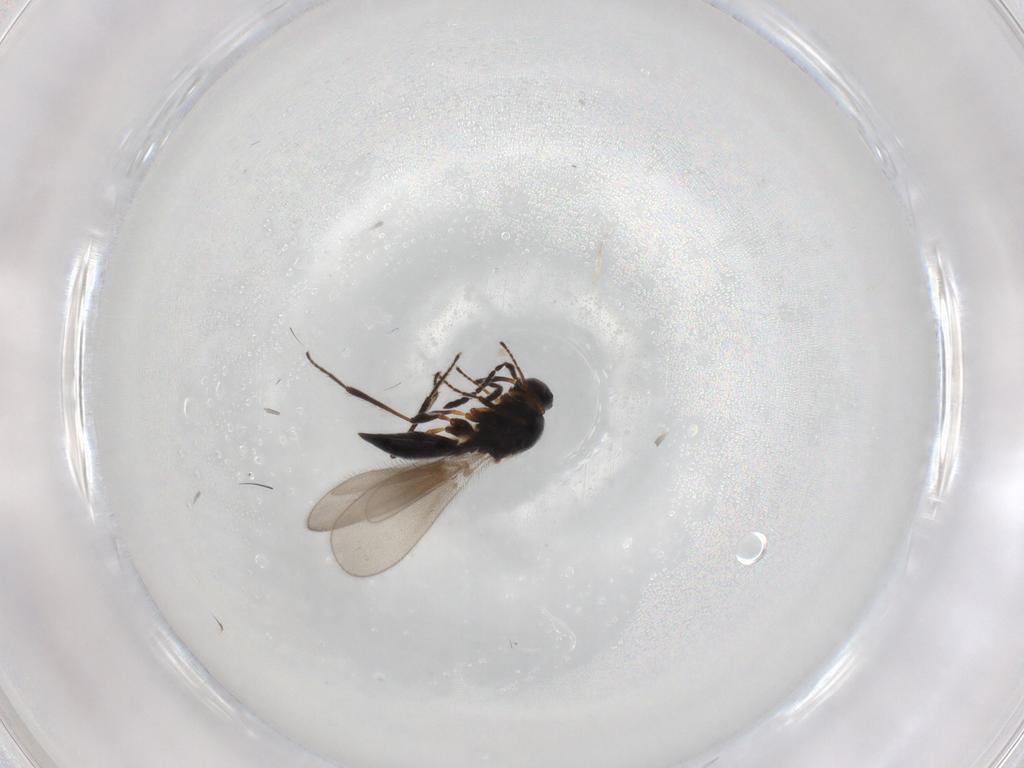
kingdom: Animalia
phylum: Arthropoda
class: Insecta
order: Hymenoptera
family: Platygastridae
